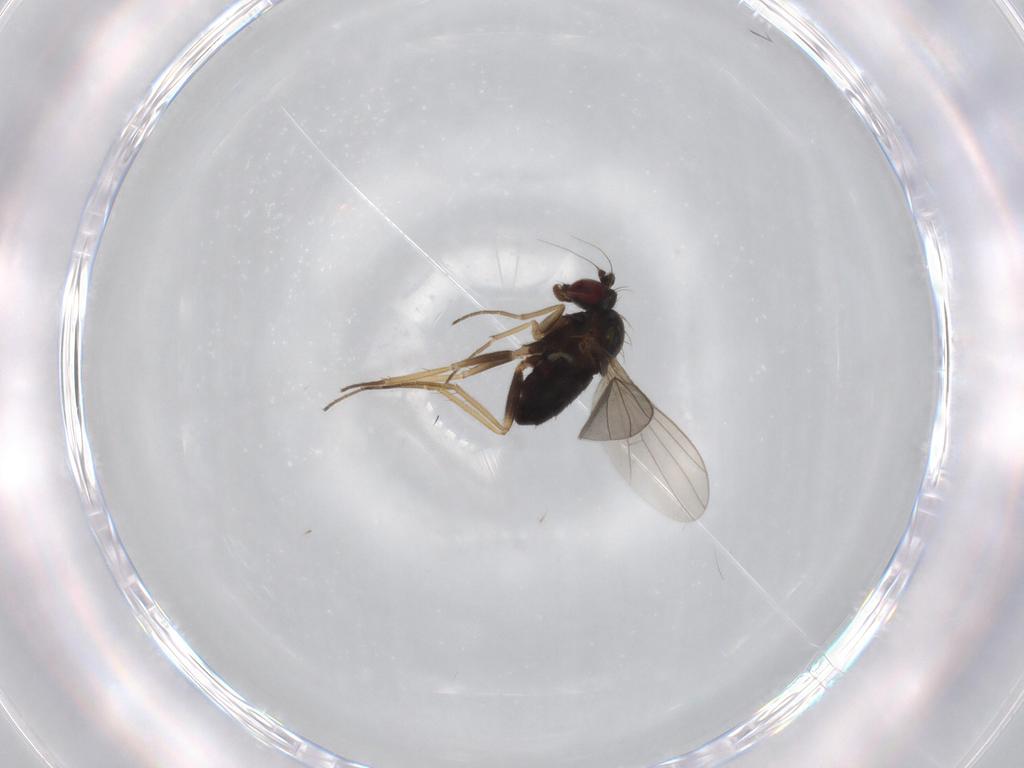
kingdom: Animalia
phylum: Arthropoda
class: Insecta
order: Diptera
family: Dolichopodidae
